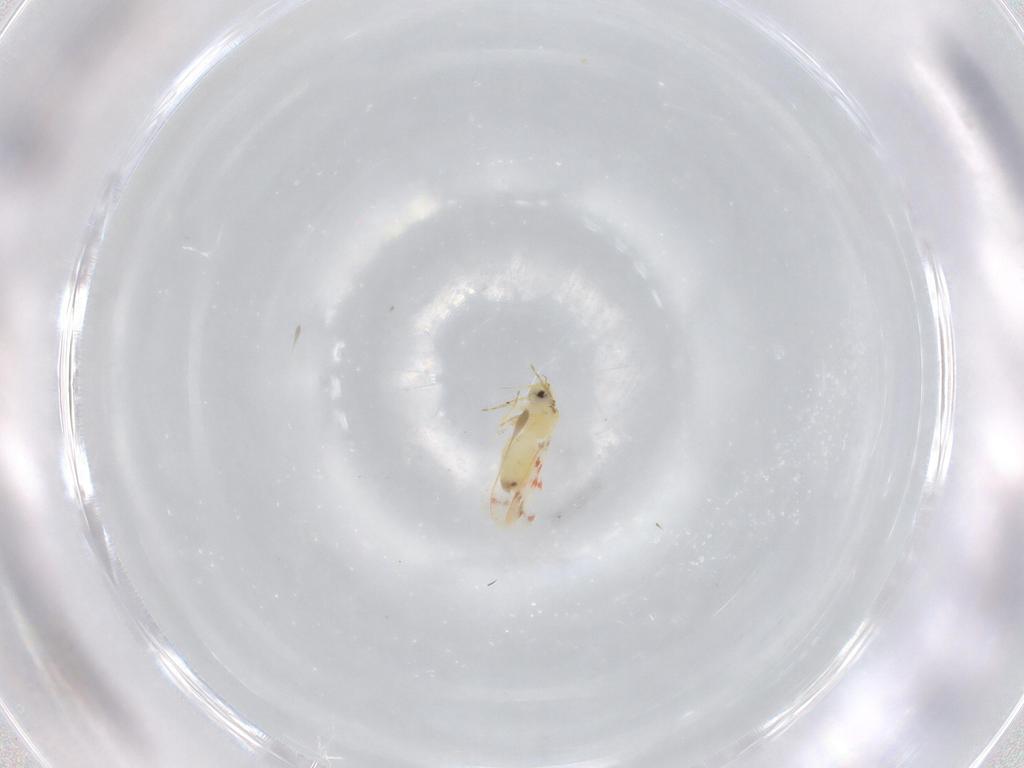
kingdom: Animalia
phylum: Arthropoda
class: Insecta
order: Hemiptera
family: Aleyrodidae
